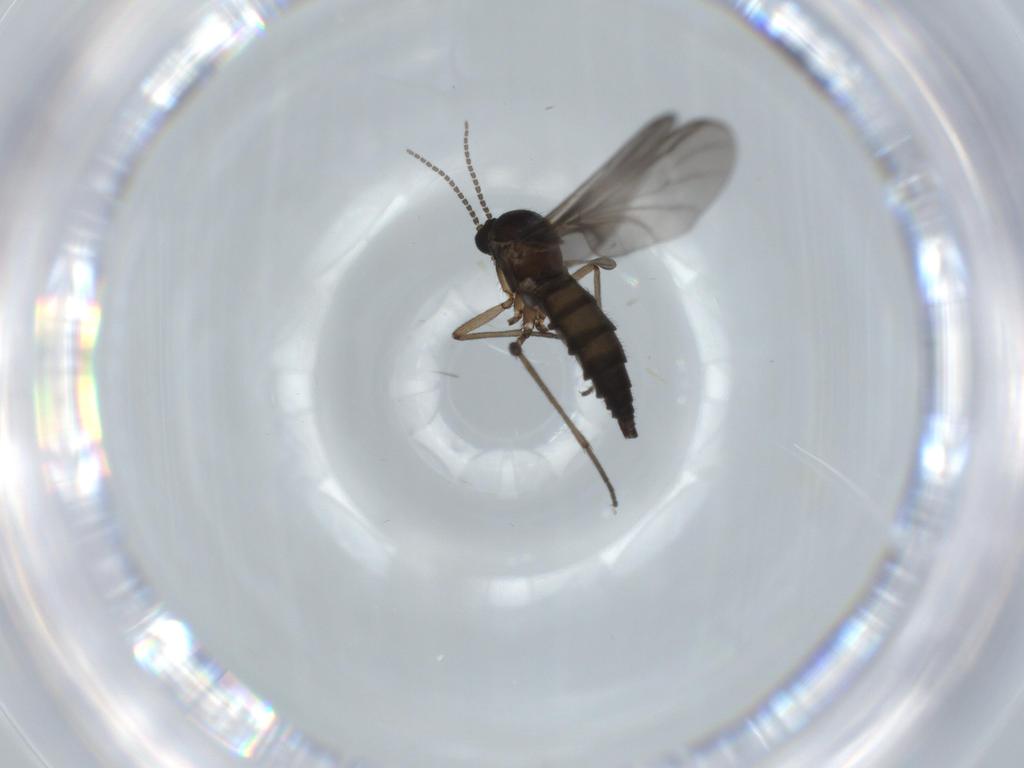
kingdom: Animalia
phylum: Arthropoda
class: Insecta
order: Diptera
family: Sciaridae
